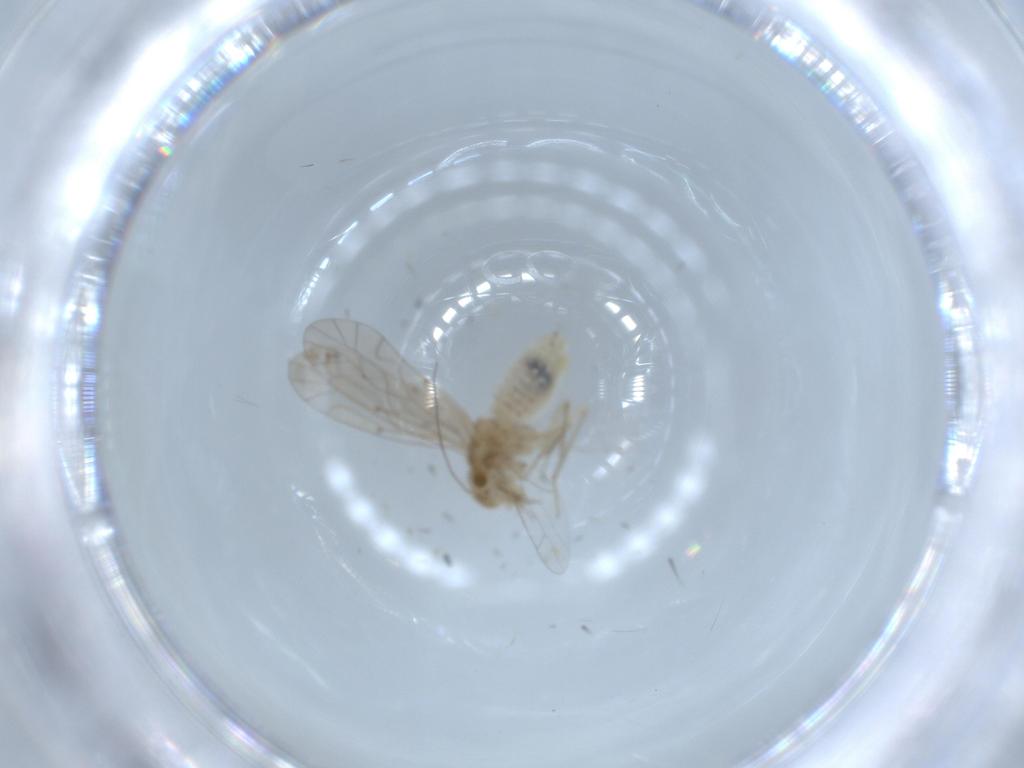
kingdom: Animalia
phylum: Arthropoda
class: Insecta
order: Psocodea
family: Lachesillidae
